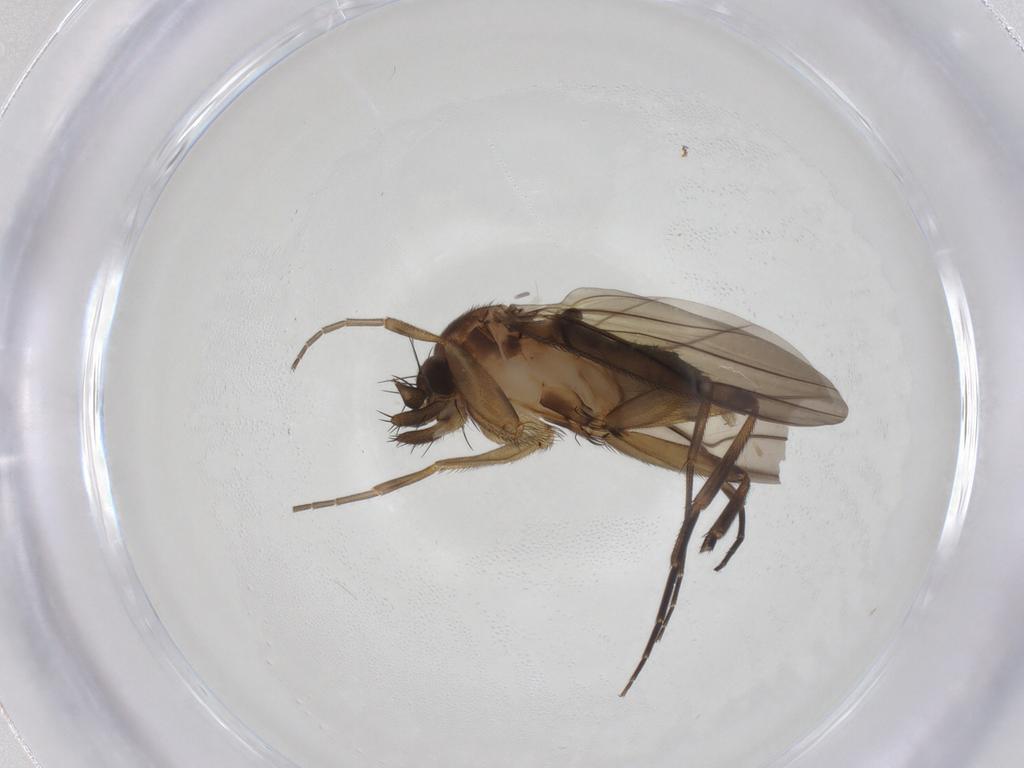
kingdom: Animalia
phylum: Arthropoda
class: Insecta
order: Diptera
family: Phoridae
